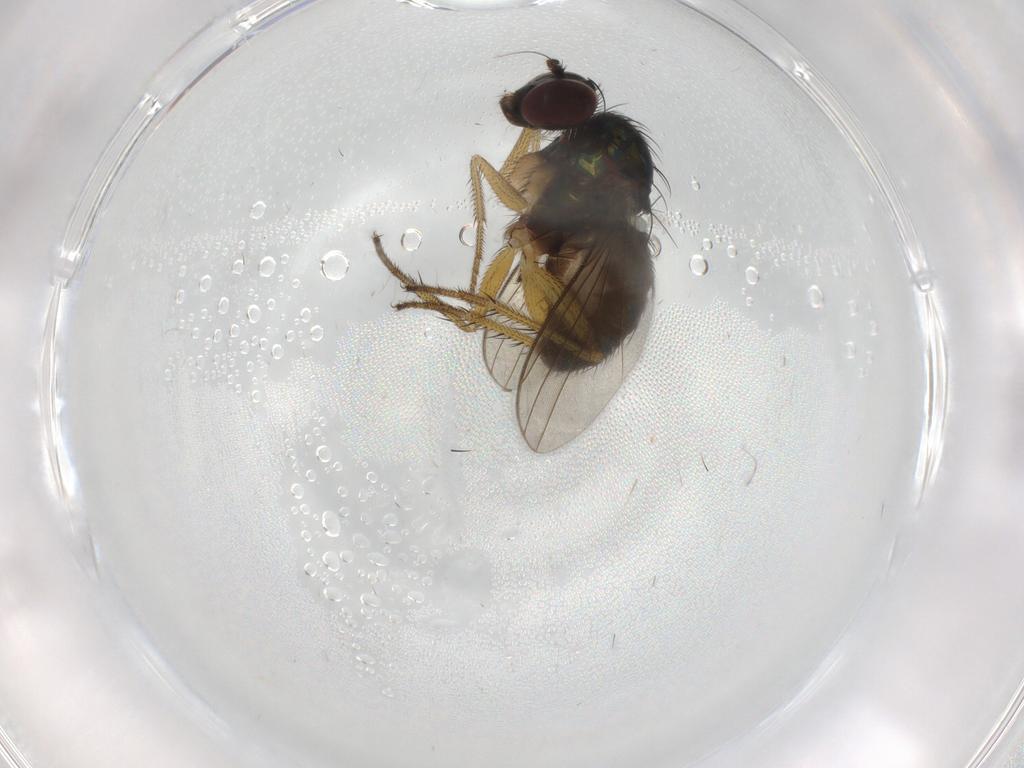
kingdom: Animalia
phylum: Arthropoda
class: Insecta
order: Diptera
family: Dolichopodidae
